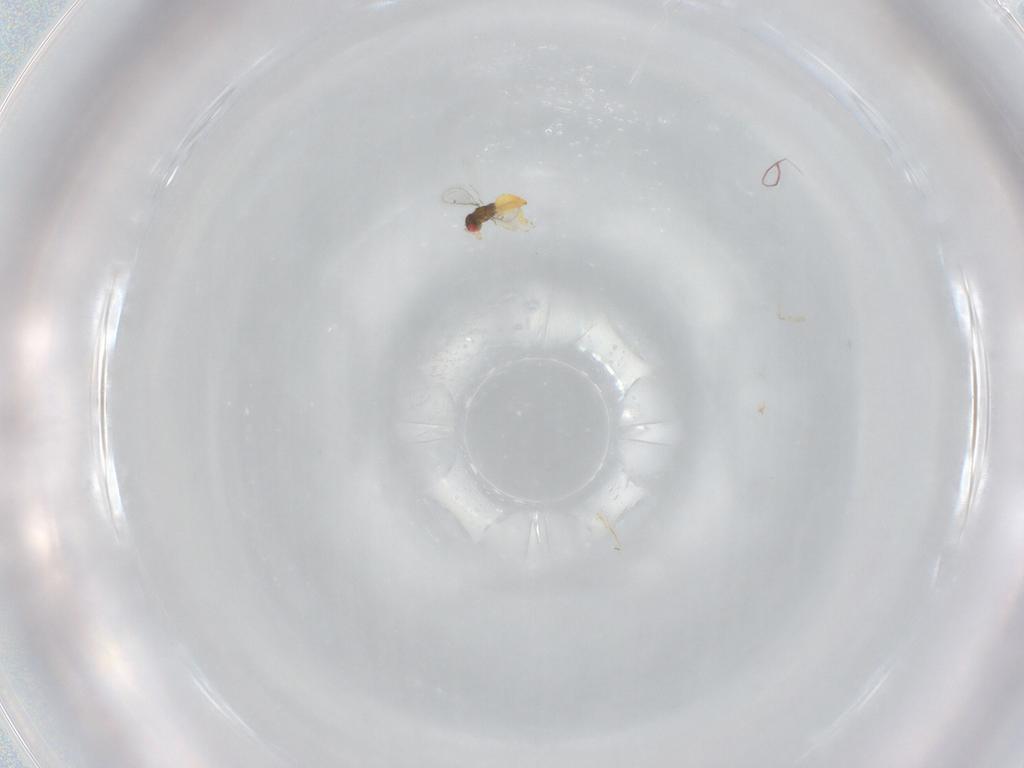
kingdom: Animalia
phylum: Arthropoda
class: Insecta
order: Hymenoptera
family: Eulophidae
